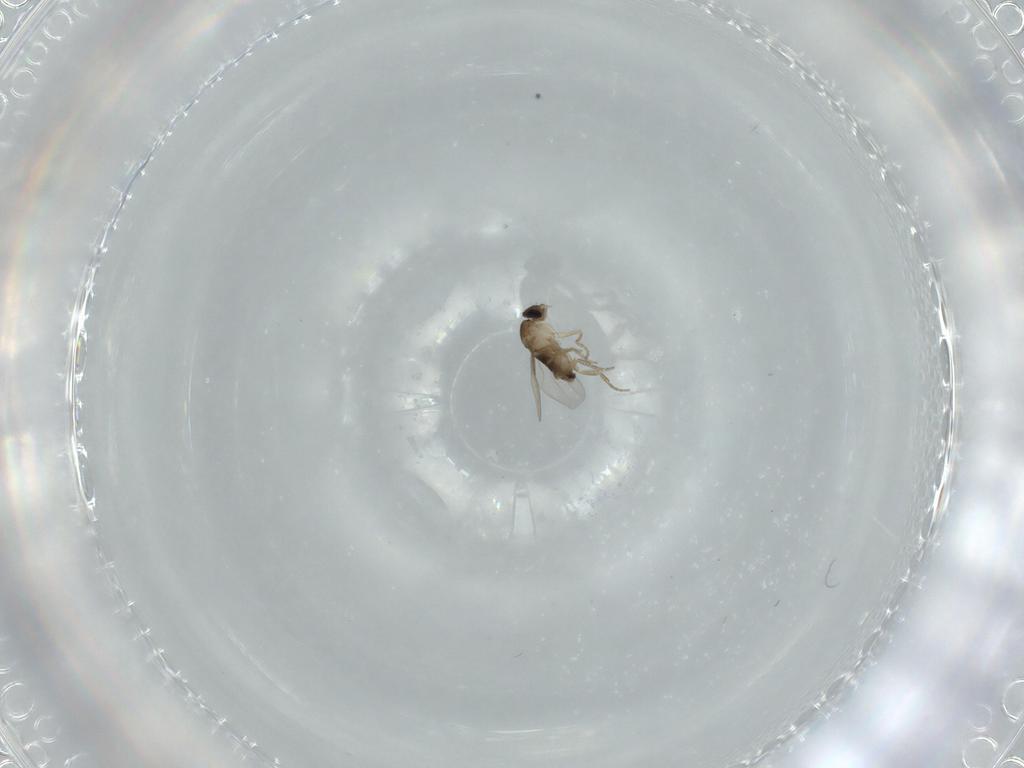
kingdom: Animalia
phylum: Arthropoda
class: Insecta
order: Diptera
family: Phoridae
